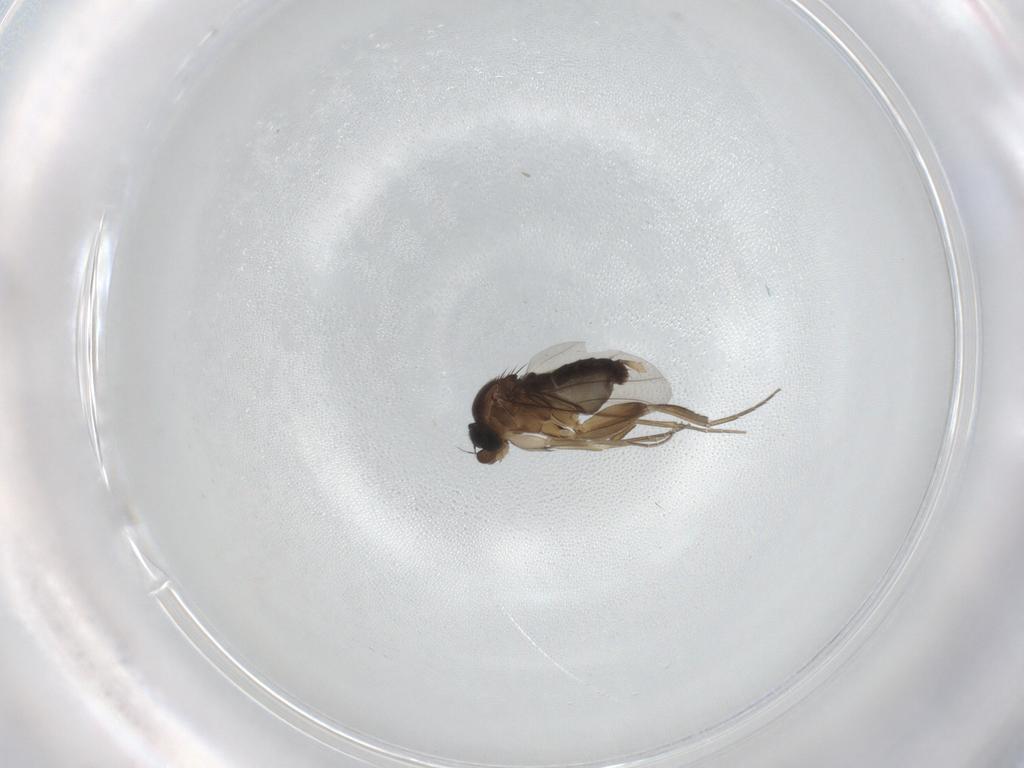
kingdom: Animalia
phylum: Arthropoda
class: Insecta
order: Diptera
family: Phoridae
